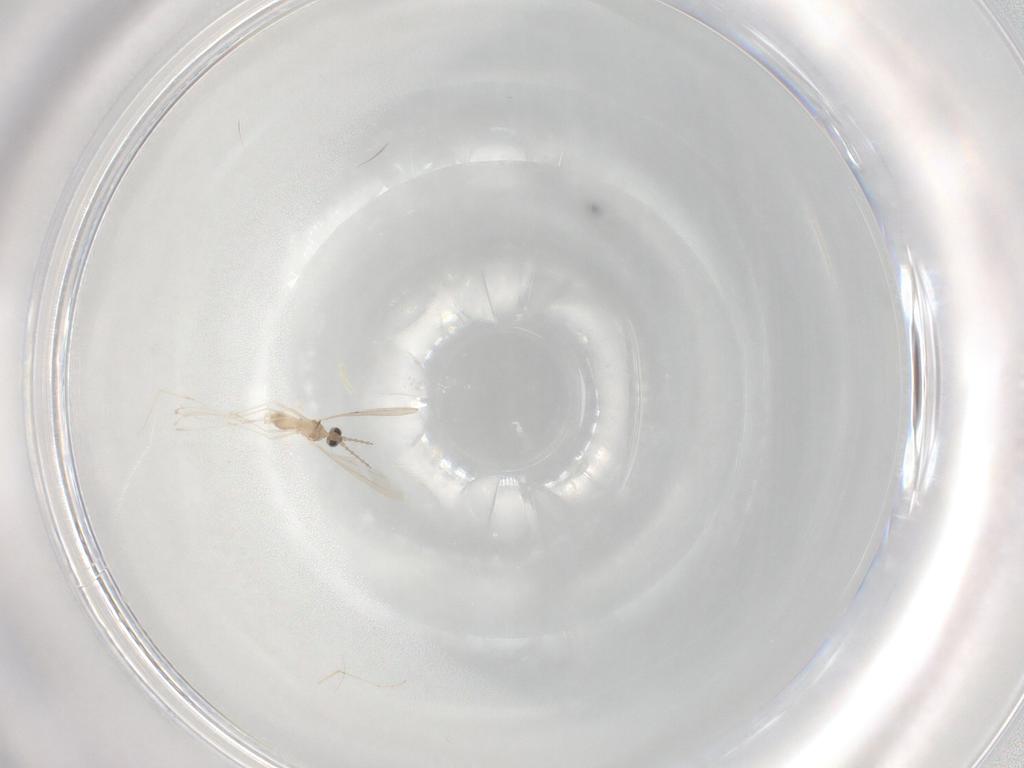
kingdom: Animalia
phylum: Arthropoda
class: Insecta
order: Diptera
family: Cecidomyiidae
